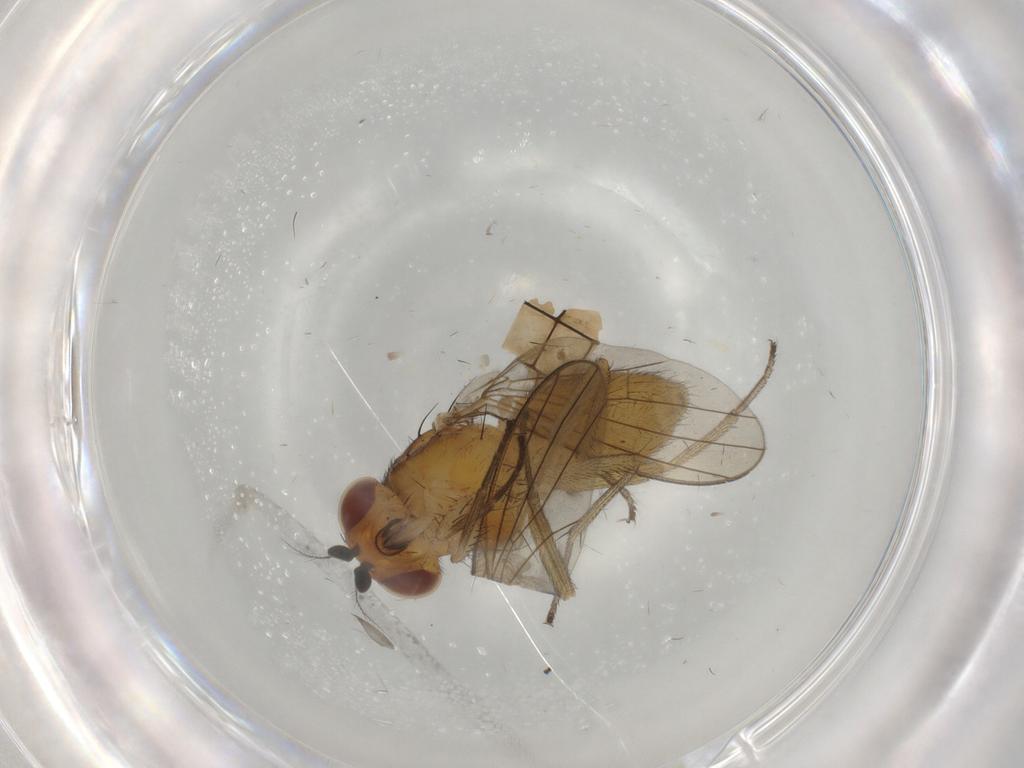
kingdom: Animalia
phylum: Arthropoda
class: Insecta
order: Diptera
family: Lauxaniidae
